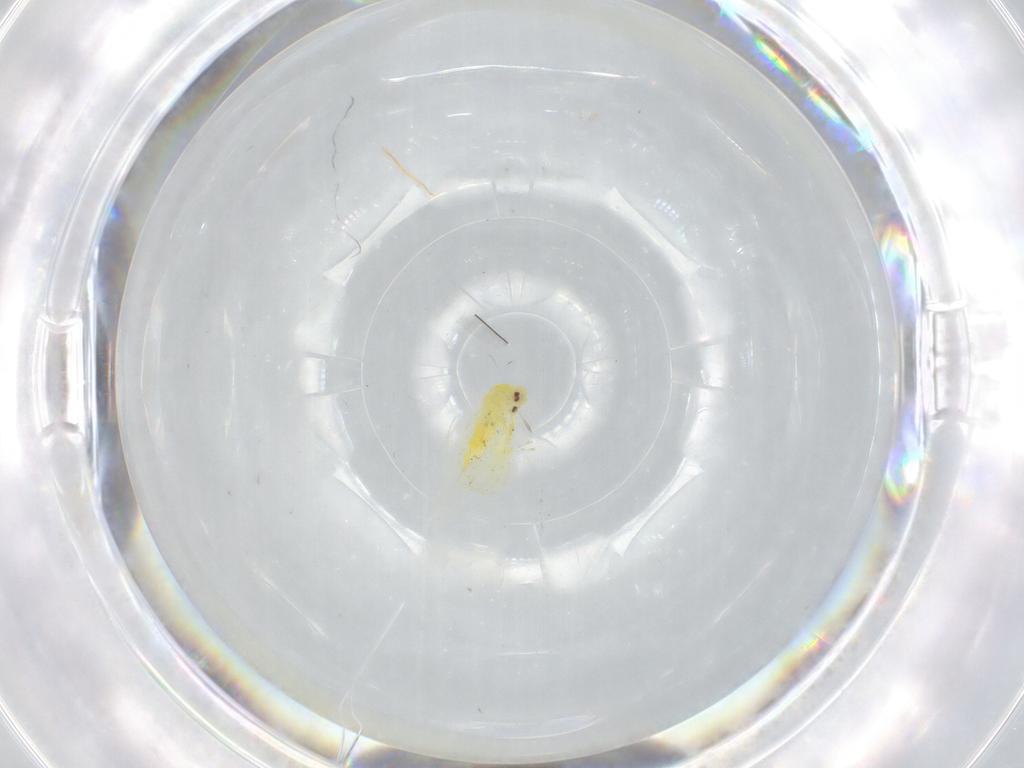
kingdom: Animalia
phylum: Arthropoda
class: Insecta
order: Hemiptera
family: Aleyrodidae
